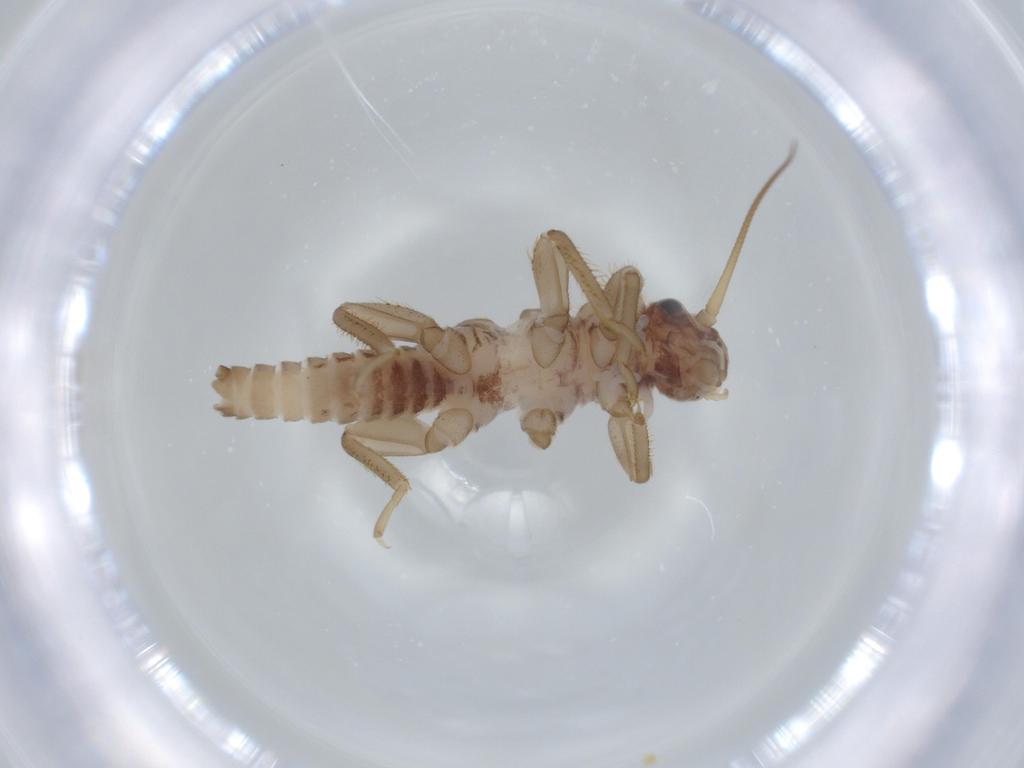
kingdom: Animalia
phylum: Arthropoda
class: Insecta
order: Plecoptera
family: Nemouridae
